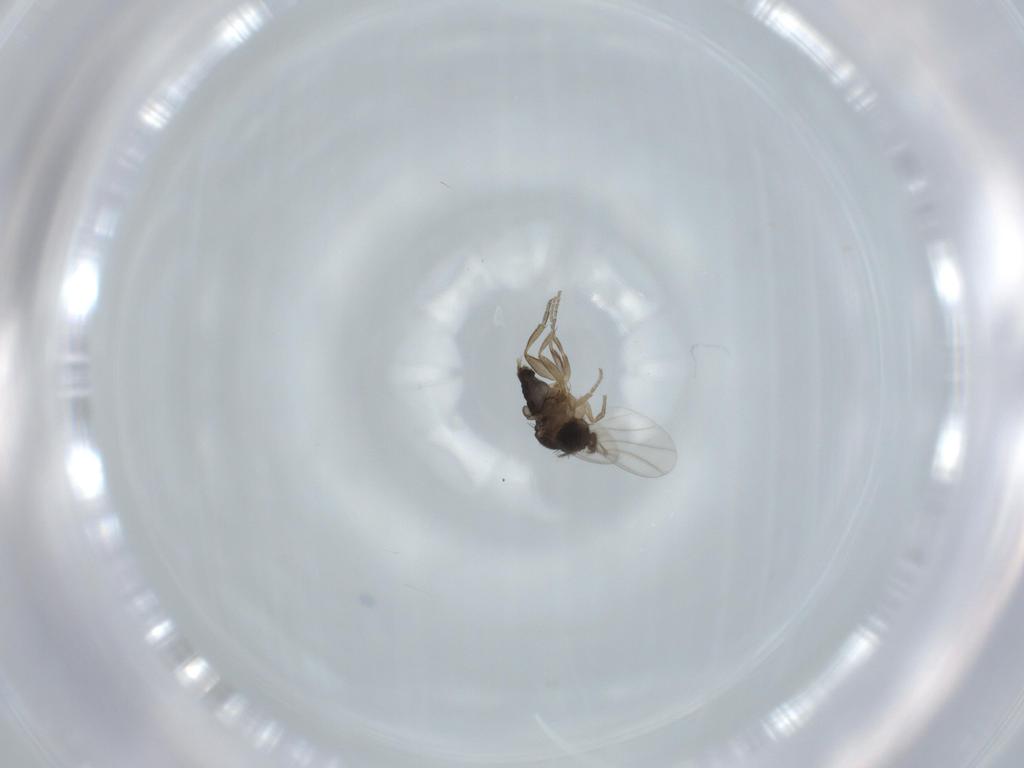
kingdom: Animalia
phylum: Arthropoda
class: Insecta
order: Diptera
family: Phoridae
